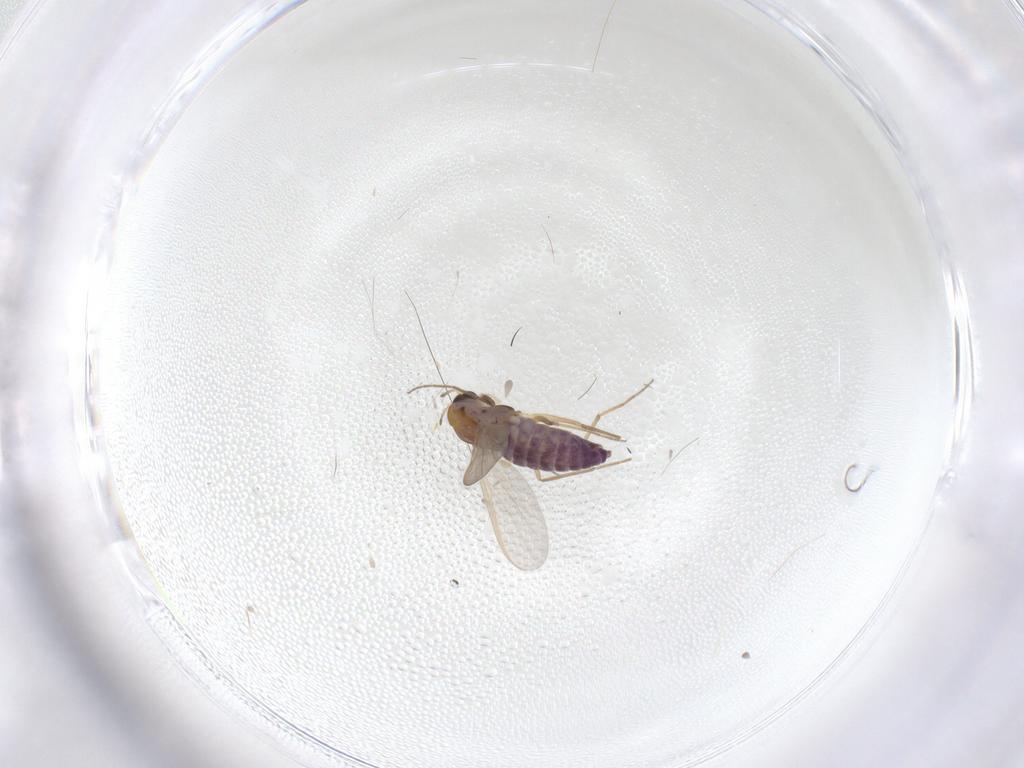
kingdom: Animalia
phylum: Arthropoda
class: Insecta
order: Diptera
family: Chironomidae
